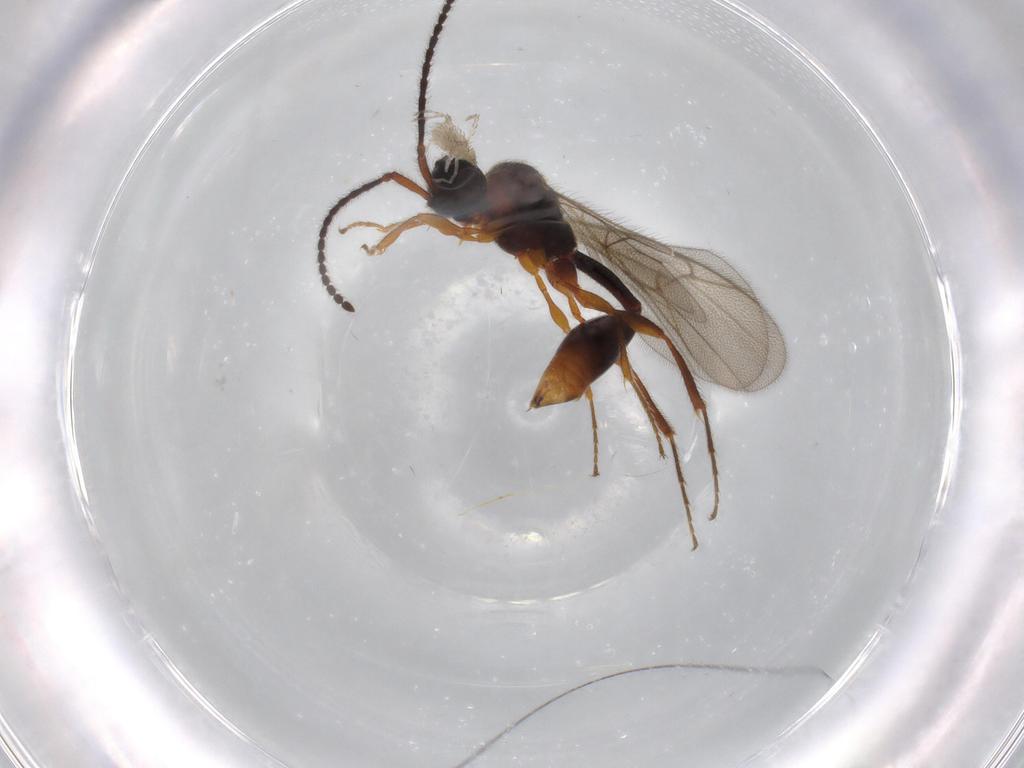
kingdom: Animalia
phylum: Arthropoda
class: Insecta
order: Hymenoptera
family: Diapriidae
